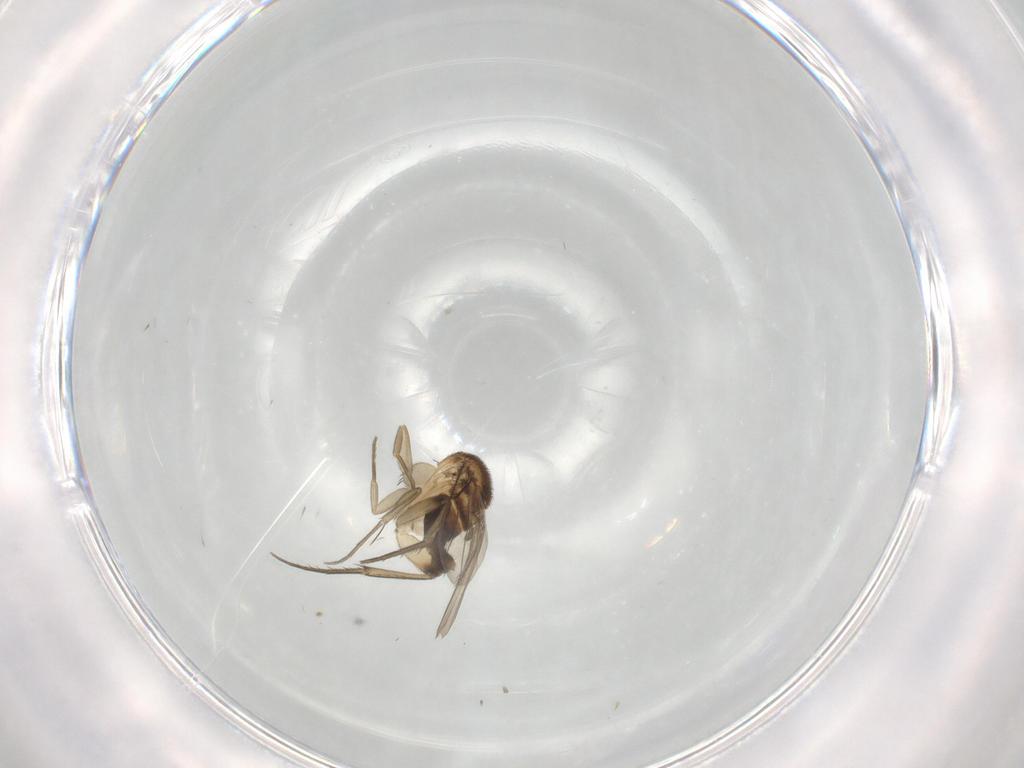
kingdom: Animalia
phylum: Arthropoda
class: Insecta
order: Diptera
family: Phoridae
